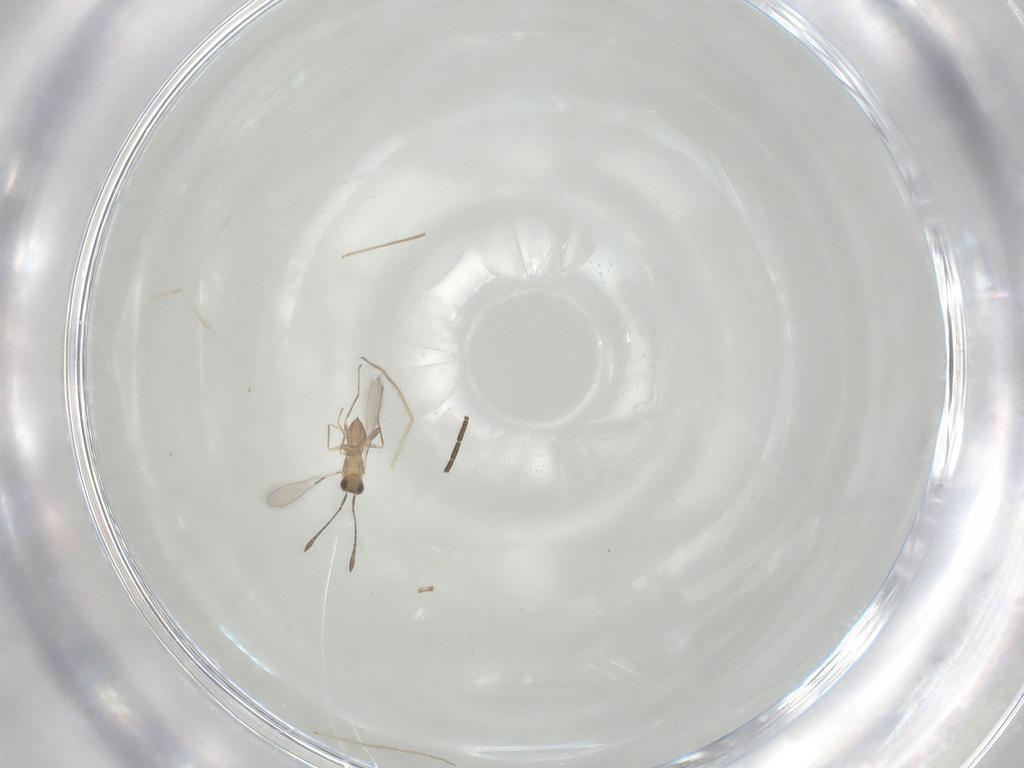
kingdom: Animalia
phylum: Arthropoda
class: Insecta
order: Hymenoptera
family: Mymaridae
